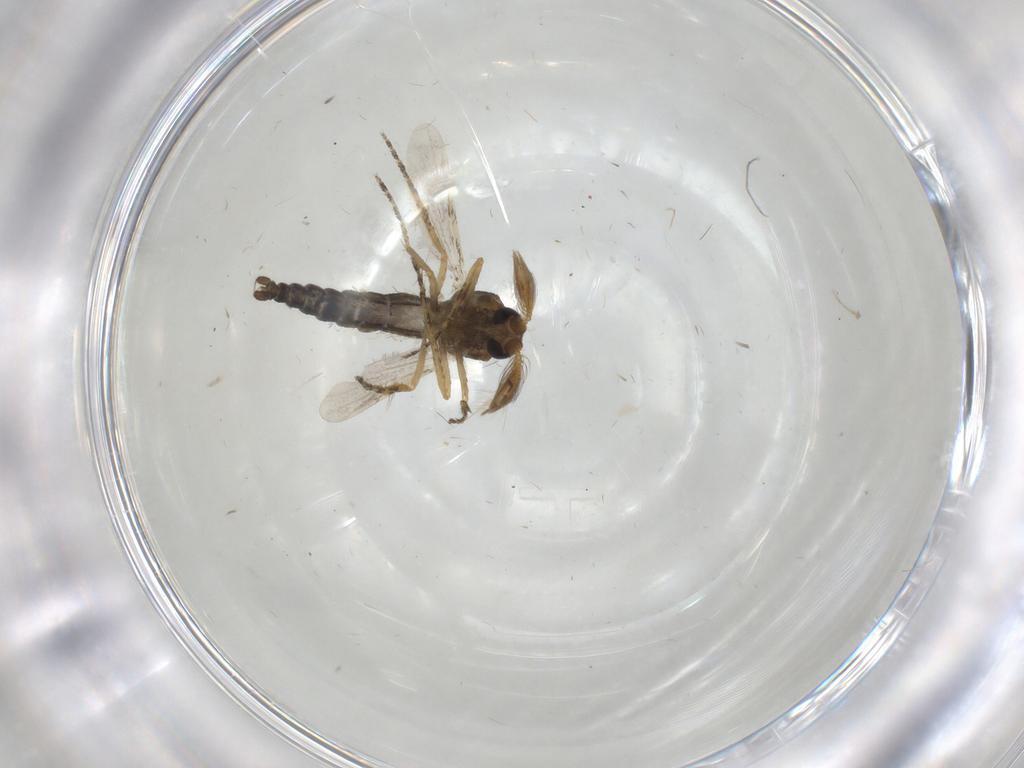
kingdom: Animalia
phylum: Arthropoda
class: Insecta
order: Diptera
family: Ceratopogonidae
